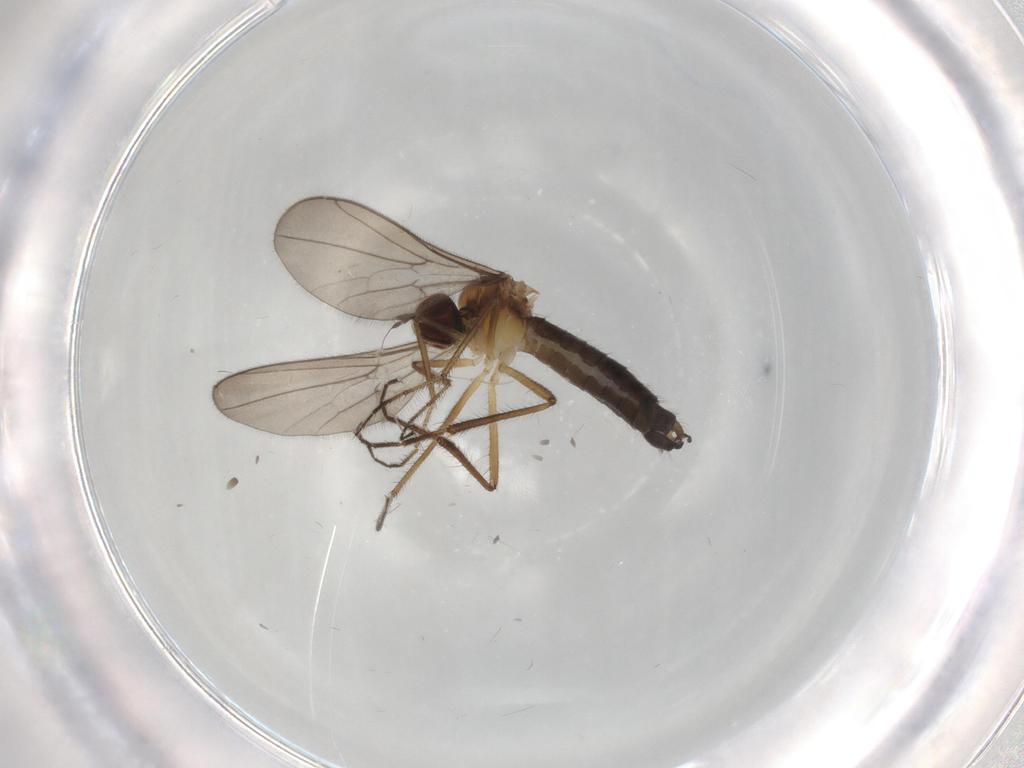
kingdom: Animalia
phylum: Arthropoda
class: Insecta
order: Diptera
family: Hybotidae
